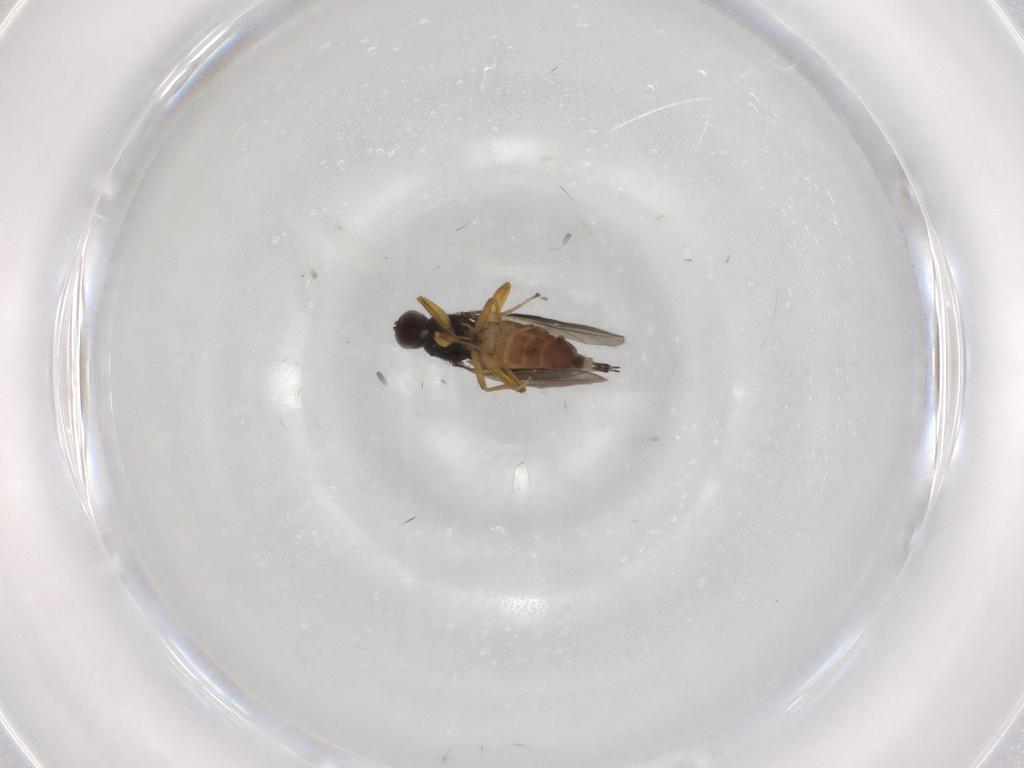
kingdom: Animalia
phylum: Arthropoda
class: Insecta
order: Diptera
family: Hybotidae
